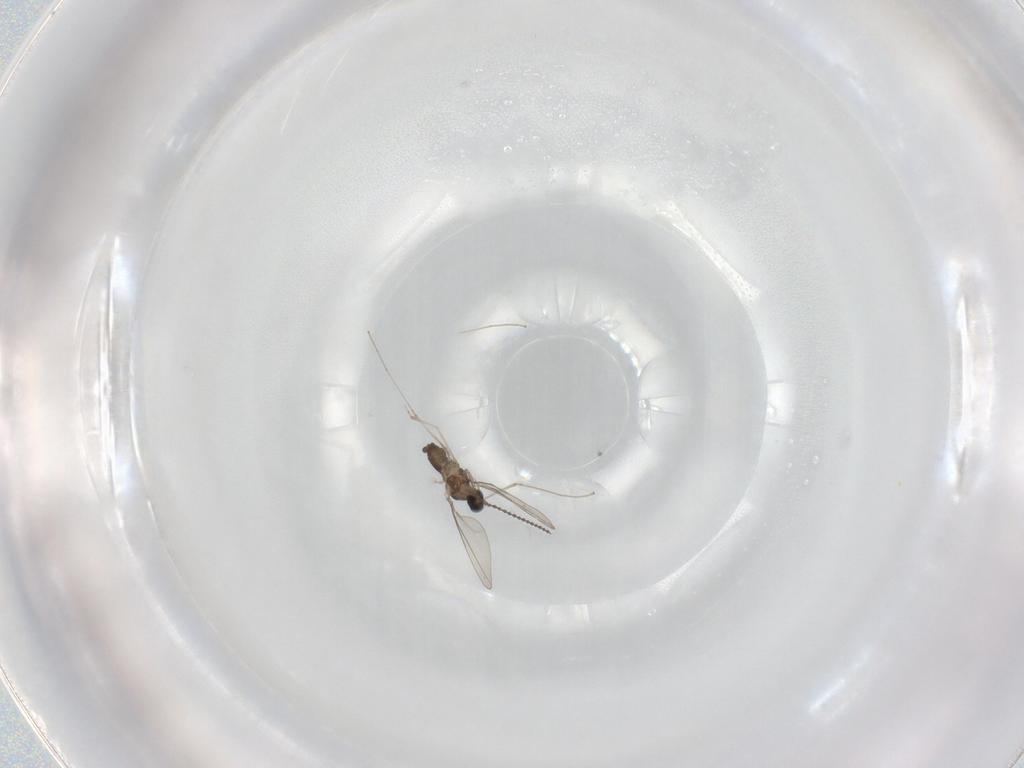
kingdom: Animalia
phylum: Arthropoda
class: Insecta
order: Diptera
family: Cecidomyiidae
